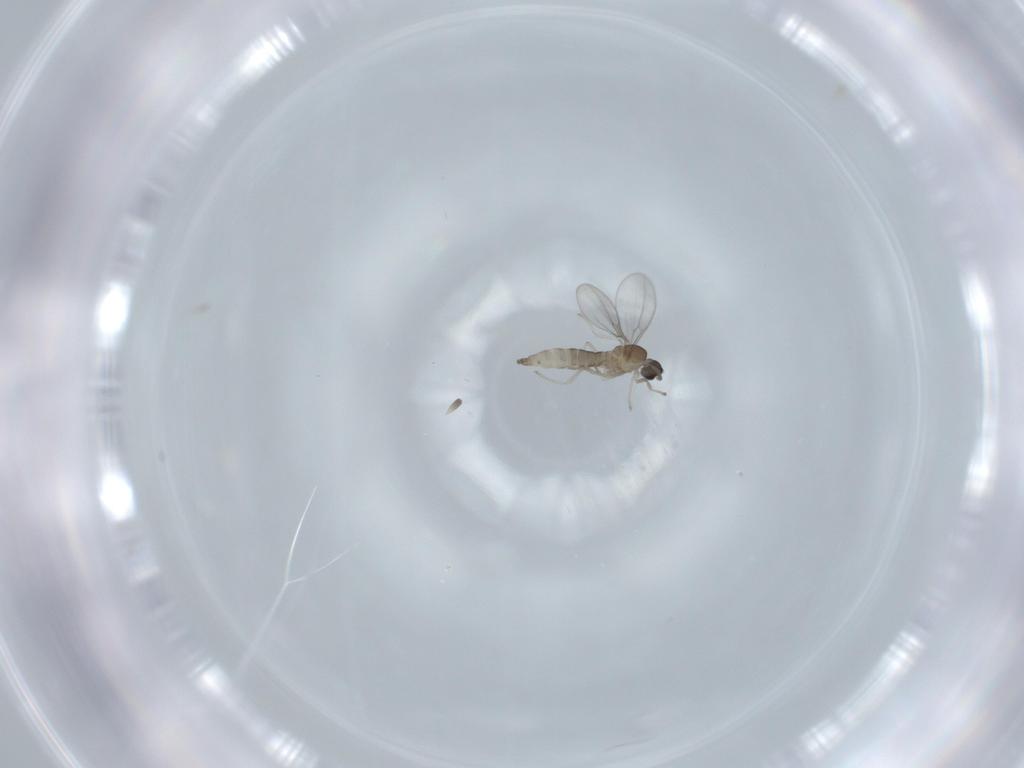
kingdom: Animalia
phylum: Arthropoda
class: Insecta
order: Diptera
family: Cecidomyiidae
